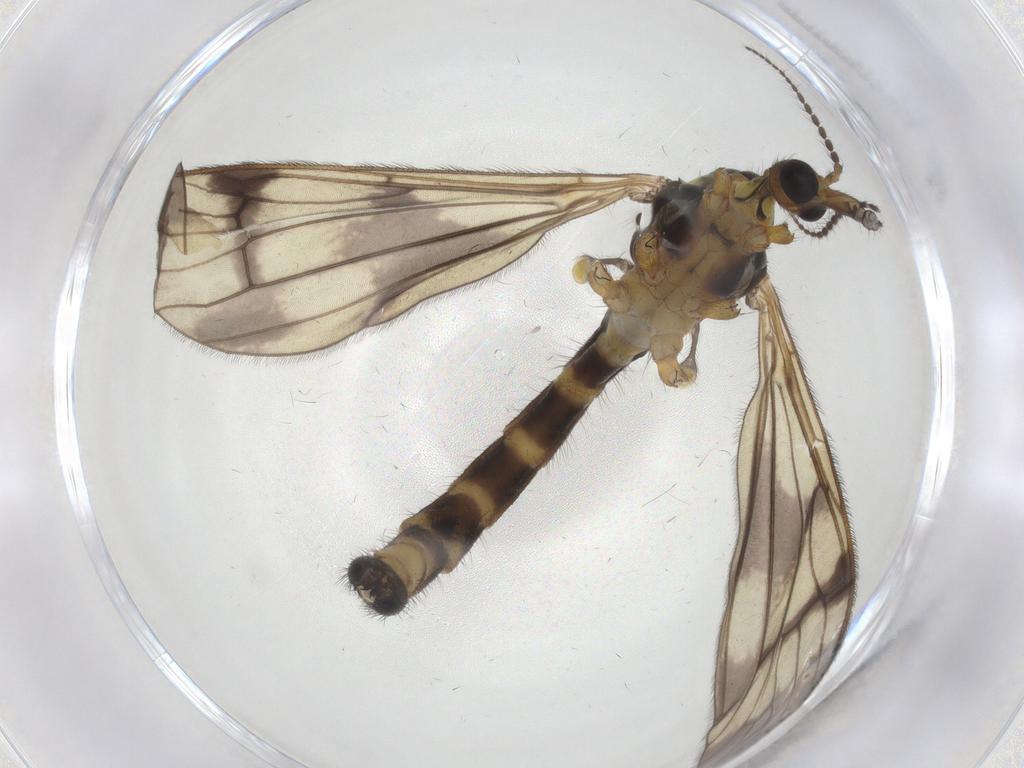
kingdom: Animalia
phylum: Arthropoda
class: Insecta
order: Diptera
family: Limoniidae
